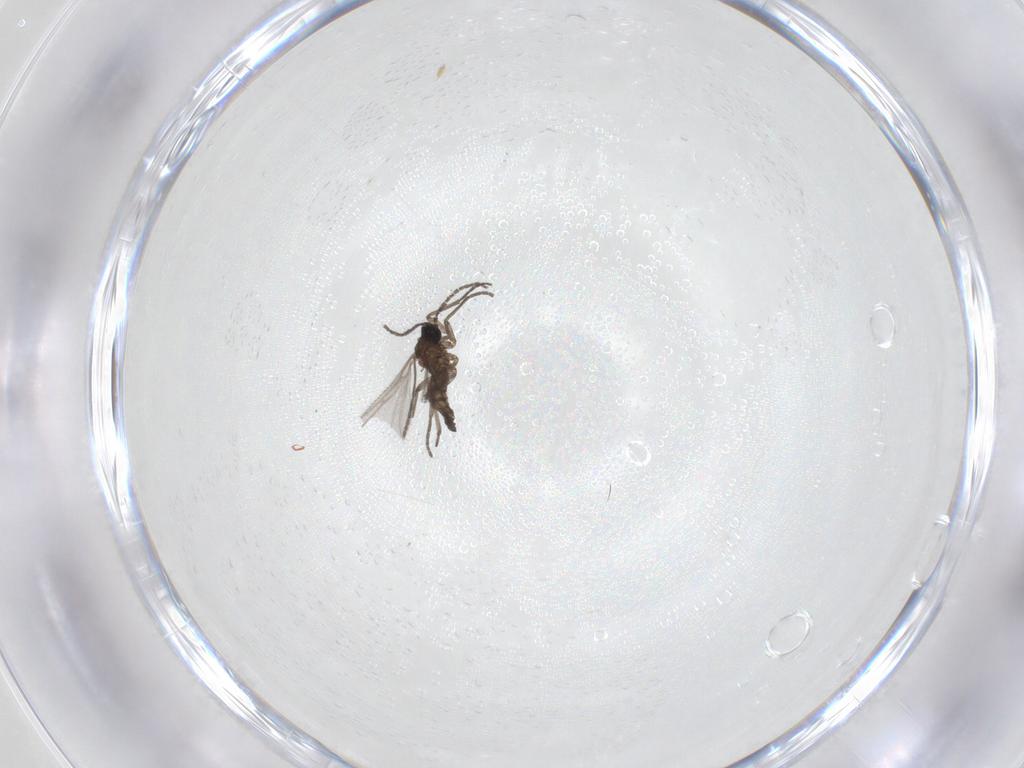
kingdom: Animalia
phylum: Arthropoda
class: Insecta
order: Diptera
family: Sciaridae
